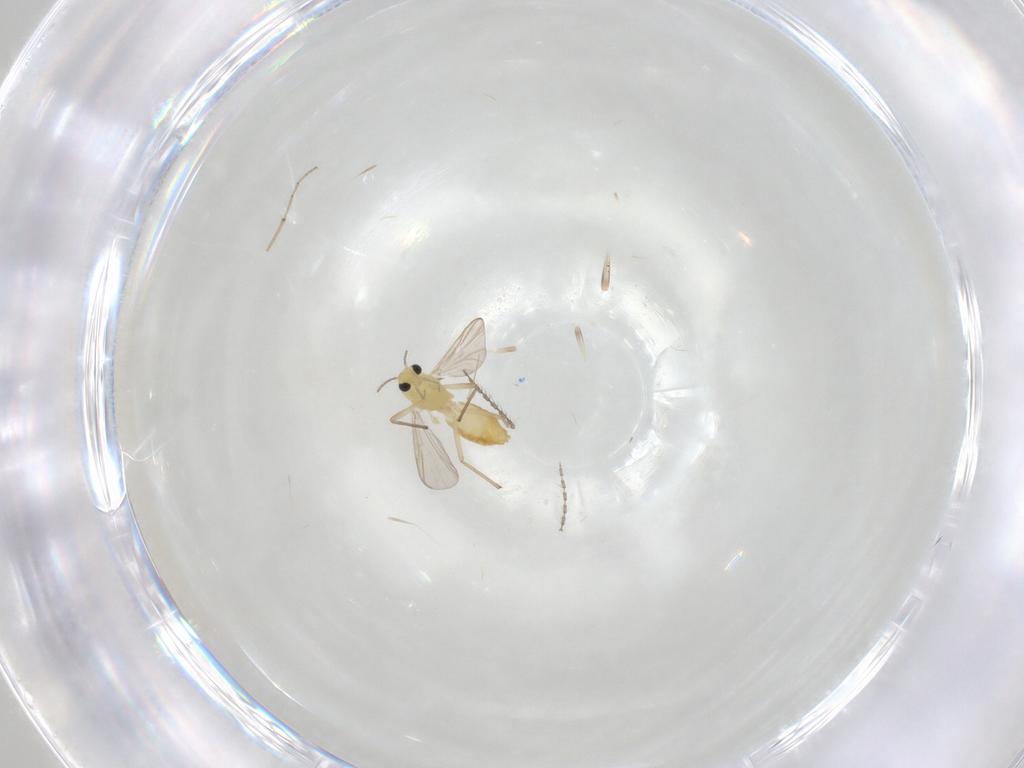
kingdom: Animalia
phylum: Arthropoda
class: Insecta
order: Diptera
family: Chironomidae
